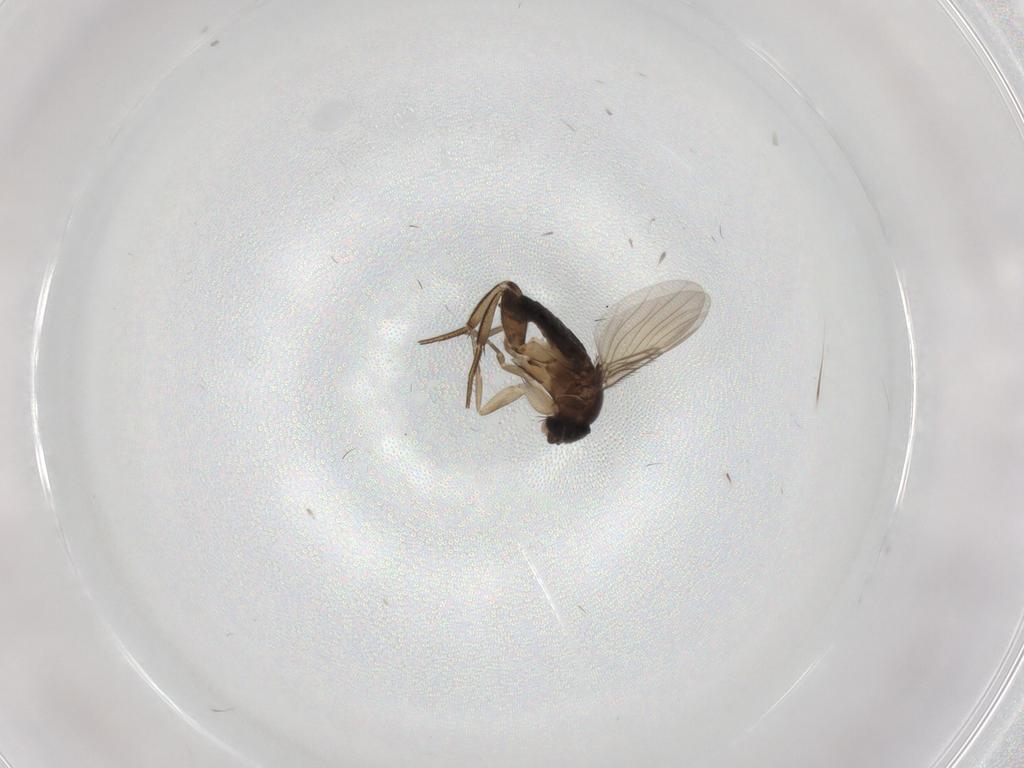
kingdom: Animalia
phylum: Arthropoda
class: Insecta
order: Diptera
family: Phoridae
